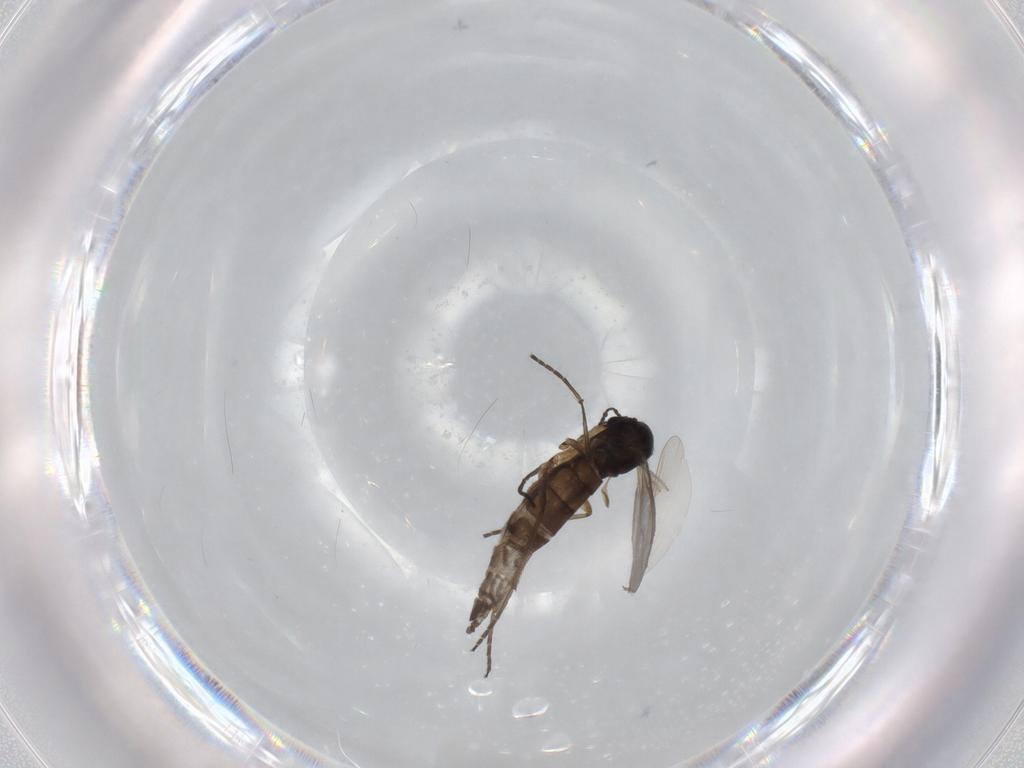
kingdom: Animalia
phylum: Arthropoda
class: Insecta
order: Diptera
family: Sciaridae
